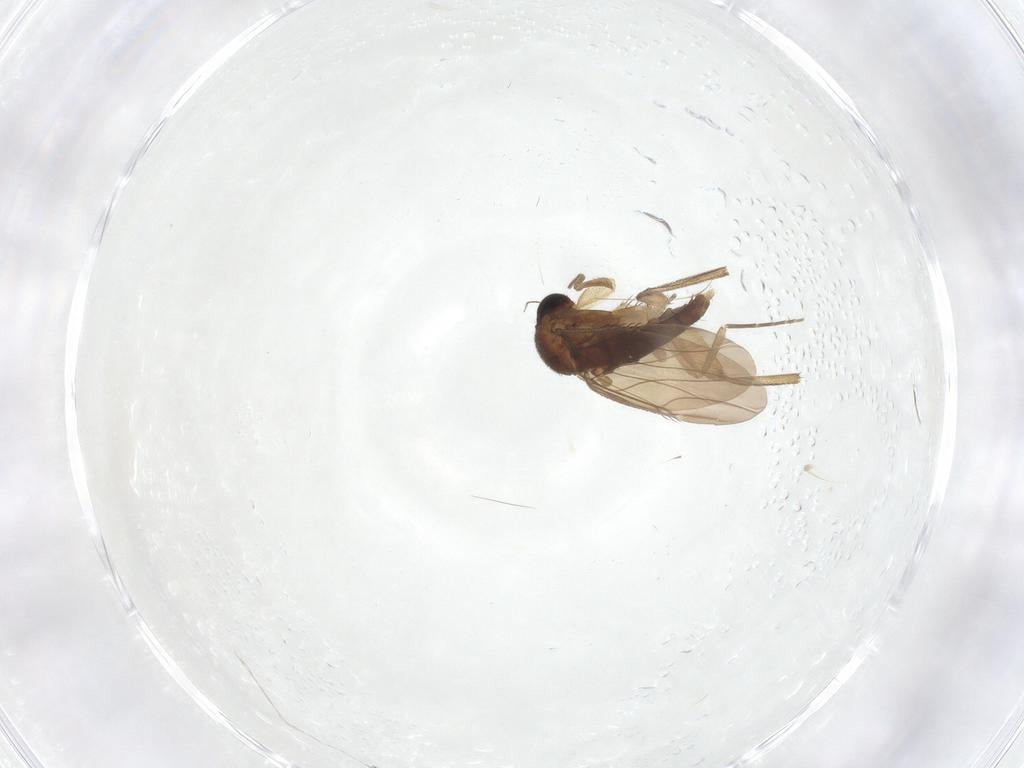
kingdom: Animalia
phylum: Arthropoda
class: Insecta
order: Diptera
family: Phoridae
